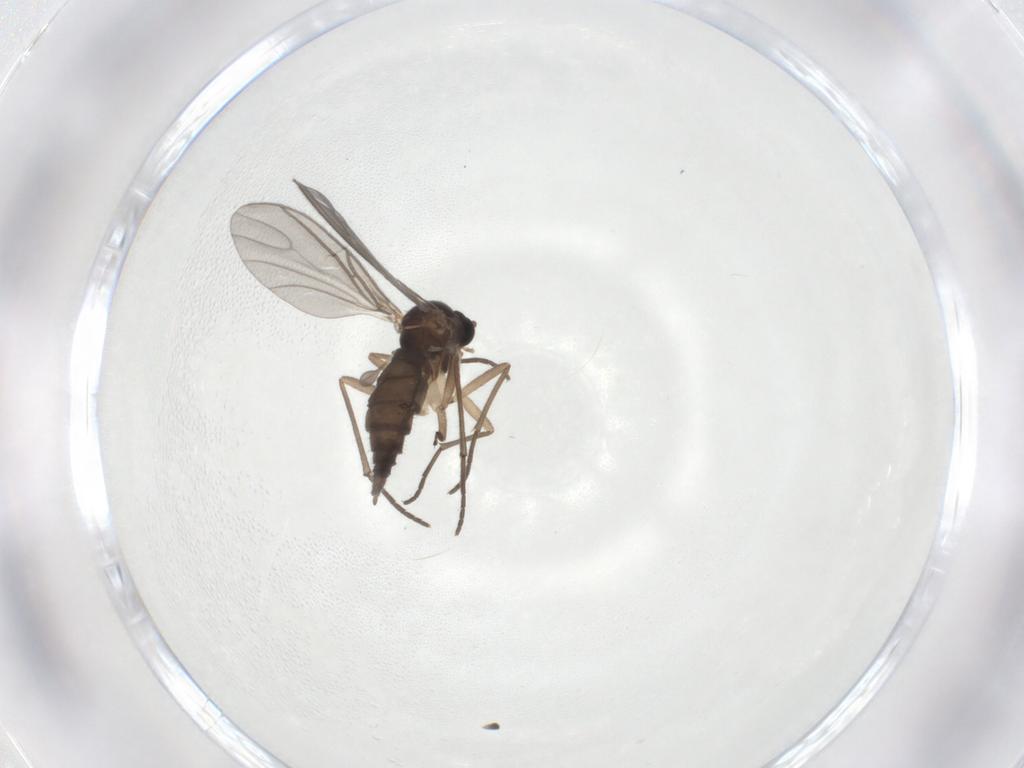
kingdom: Animalia
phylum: Arthropoda
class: Insecta
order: Diptera
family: Sciaridae
